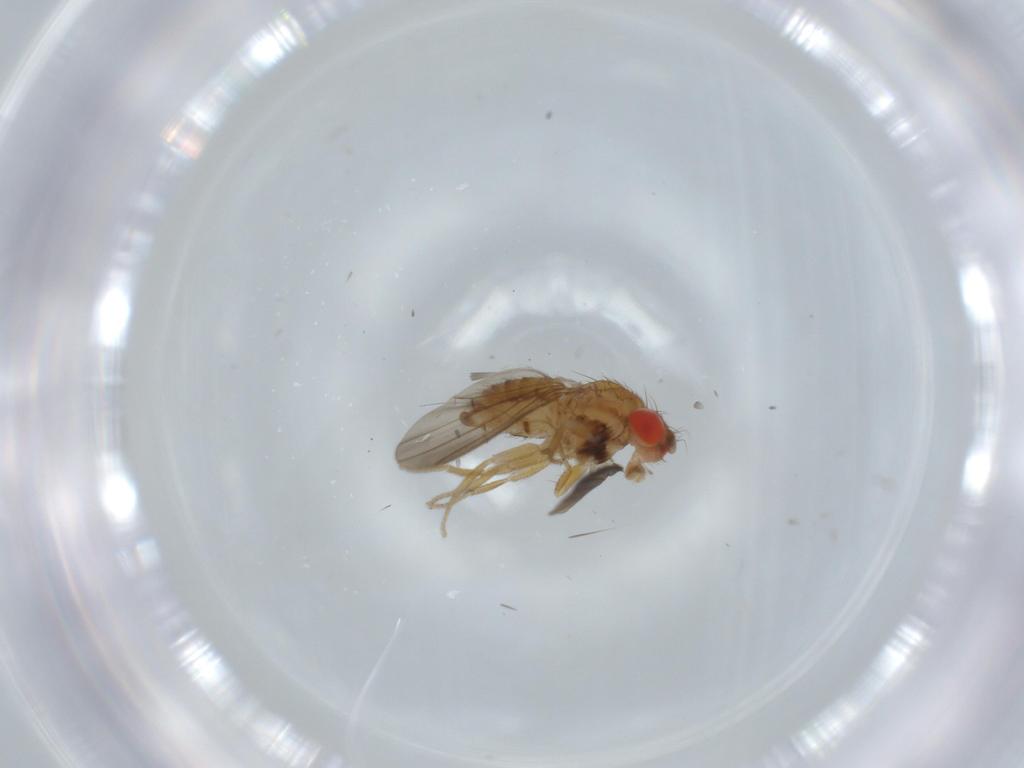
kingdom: Animalia
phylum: Arthropoda
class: Insecta
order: Diptera
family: Drosophilidae
